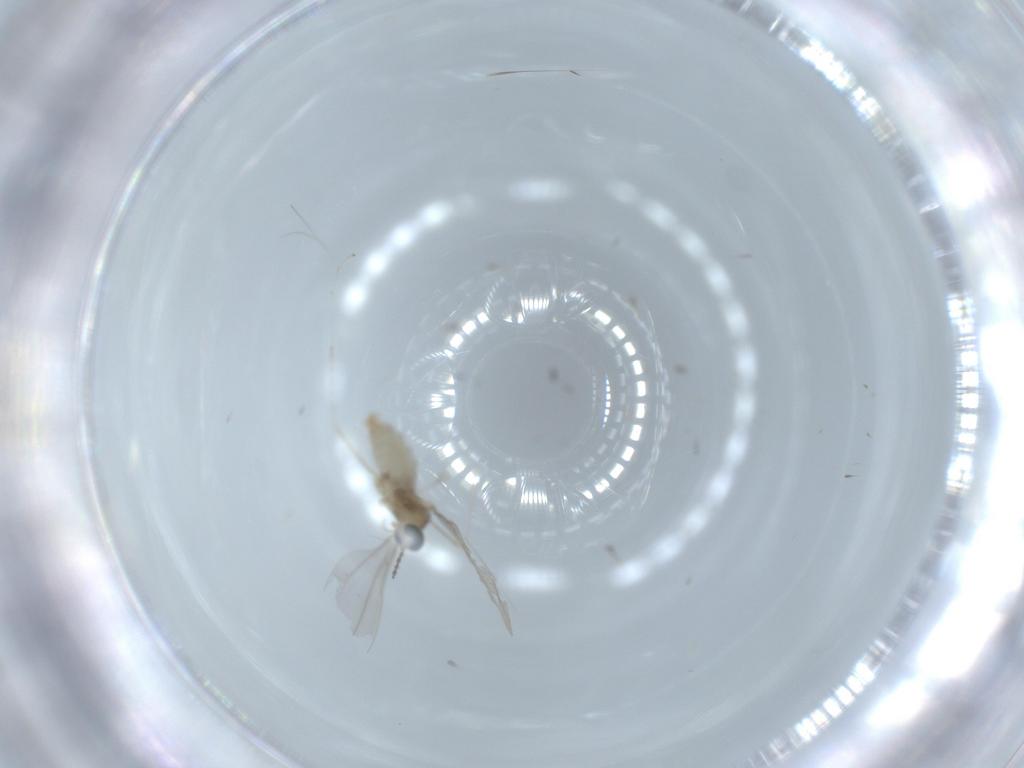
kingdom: Animalia
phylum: Arthropoda
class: Insecta
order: Diptera
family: Cecidomyiidae
